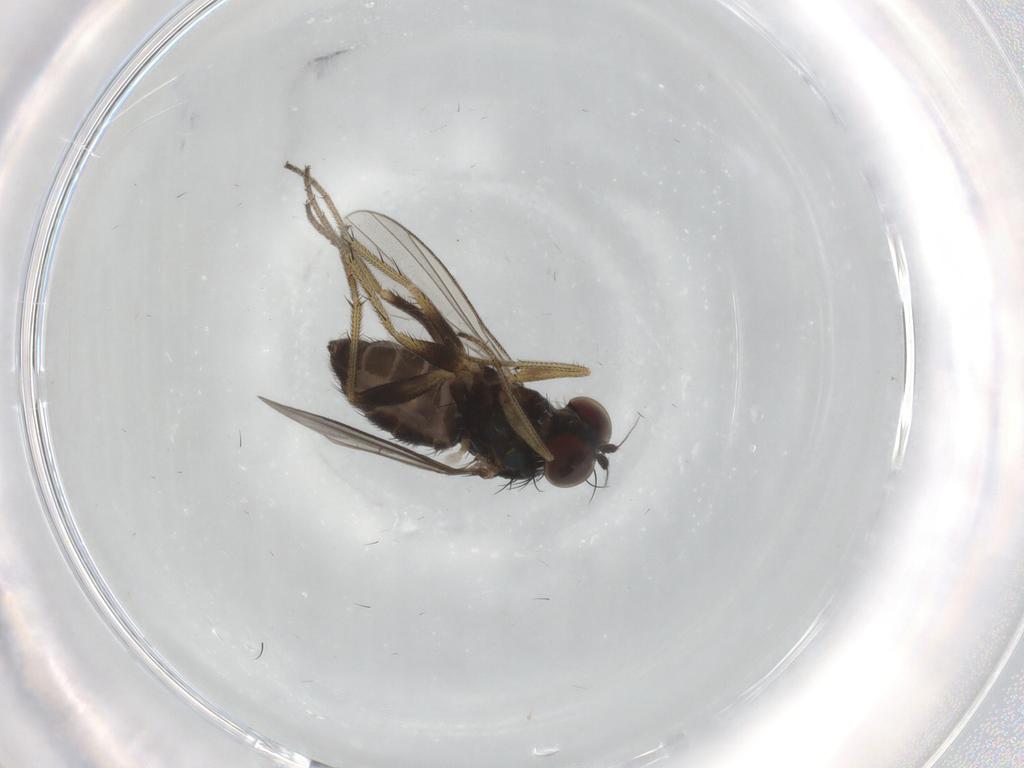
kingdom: Animalia
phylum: Arthropoda
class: Insecta
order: Diptera
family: Dolichopodidae
